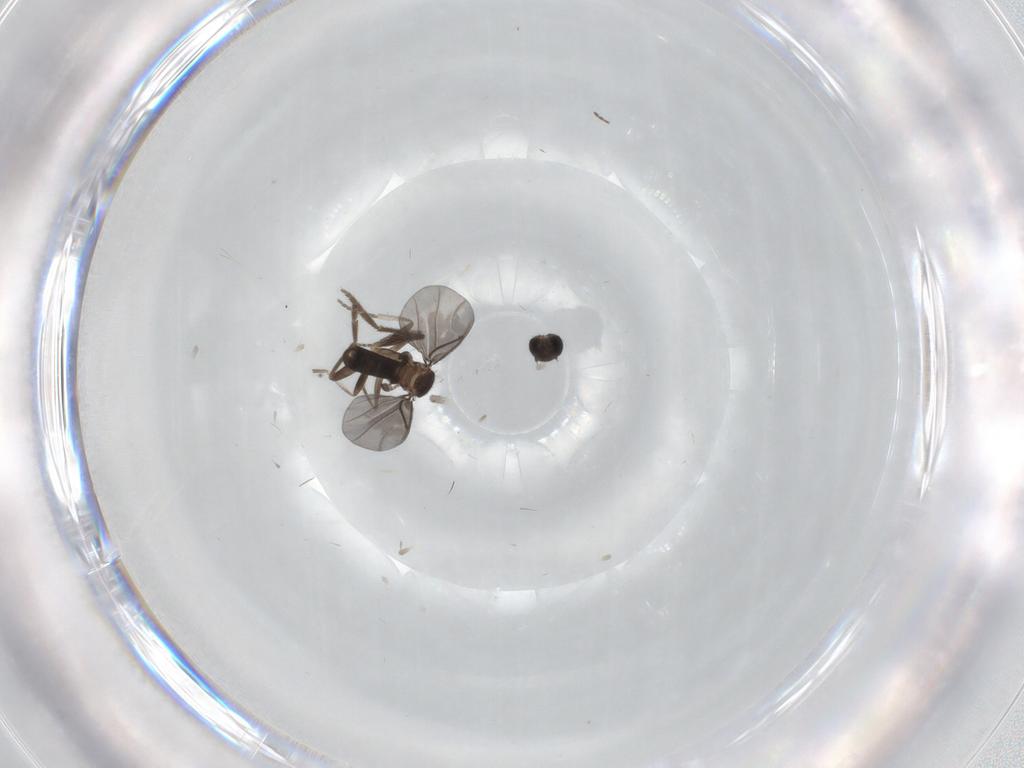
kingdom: Animalia
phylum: Arthropoda
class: Insecta
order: Diptera
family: Phoridae
